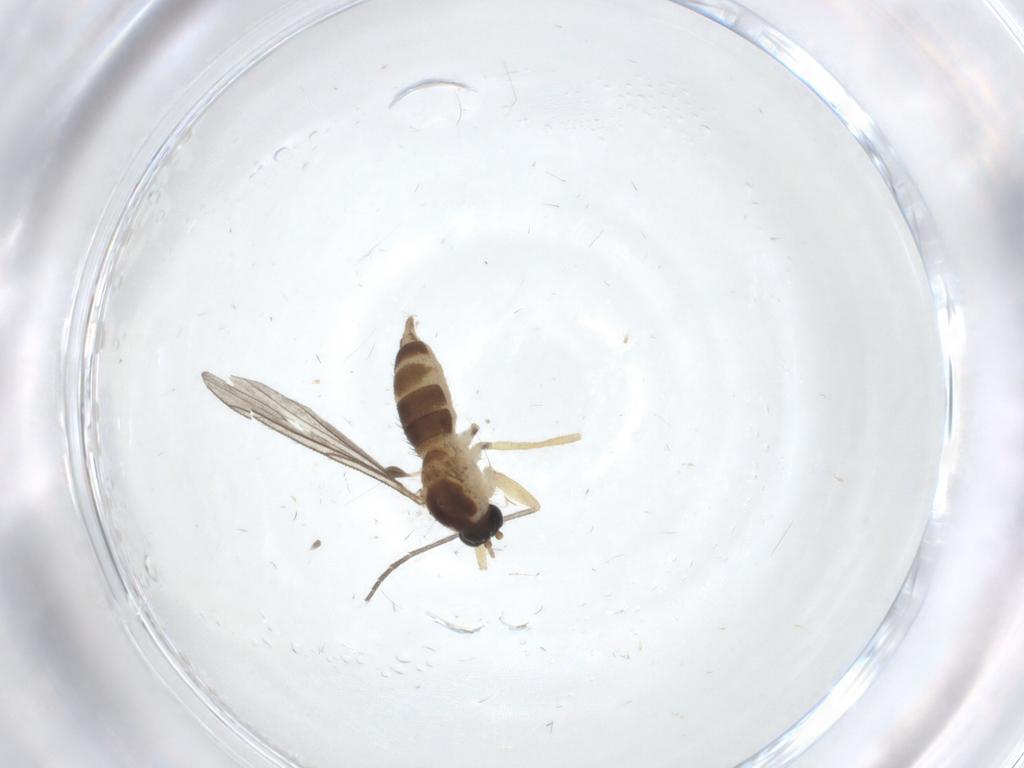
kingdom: Animalia
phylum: Arthropoda
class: Insecta
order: Diptera
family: Sciaridae
